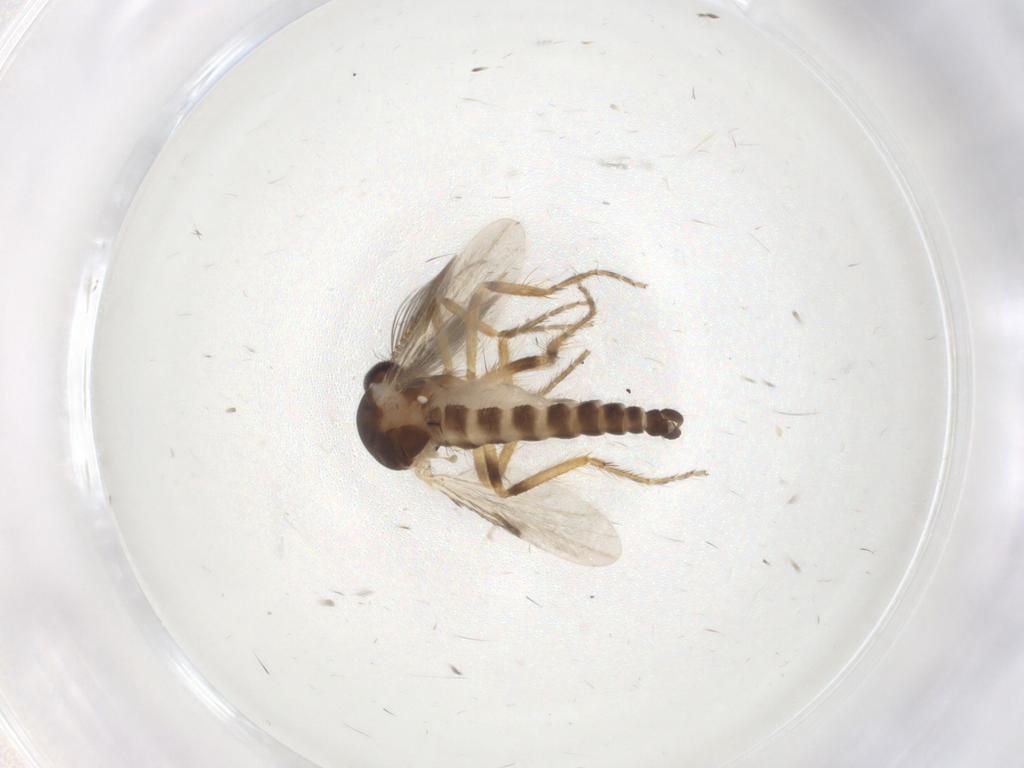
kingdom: Animalia
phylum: Arthropoda
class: Insecta
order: Diptera
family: Ceratopogonidae
